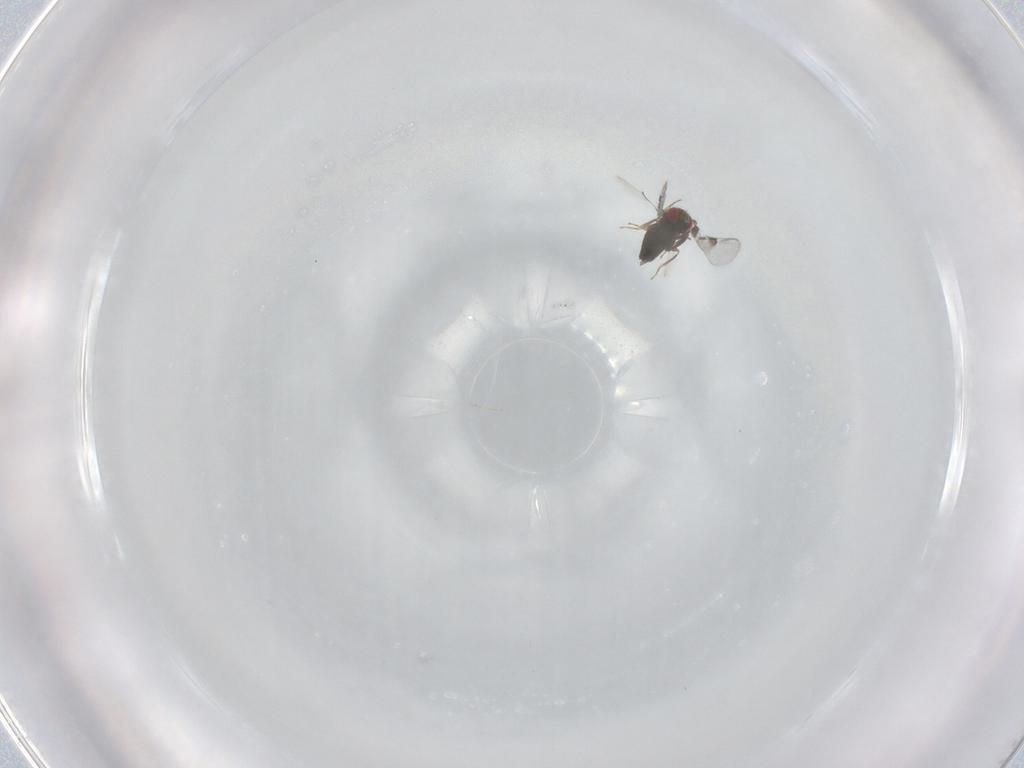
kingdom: Animalia
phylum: Arthropoda
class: Insecta
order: Hymenoptera
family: Trichogrammatidae
